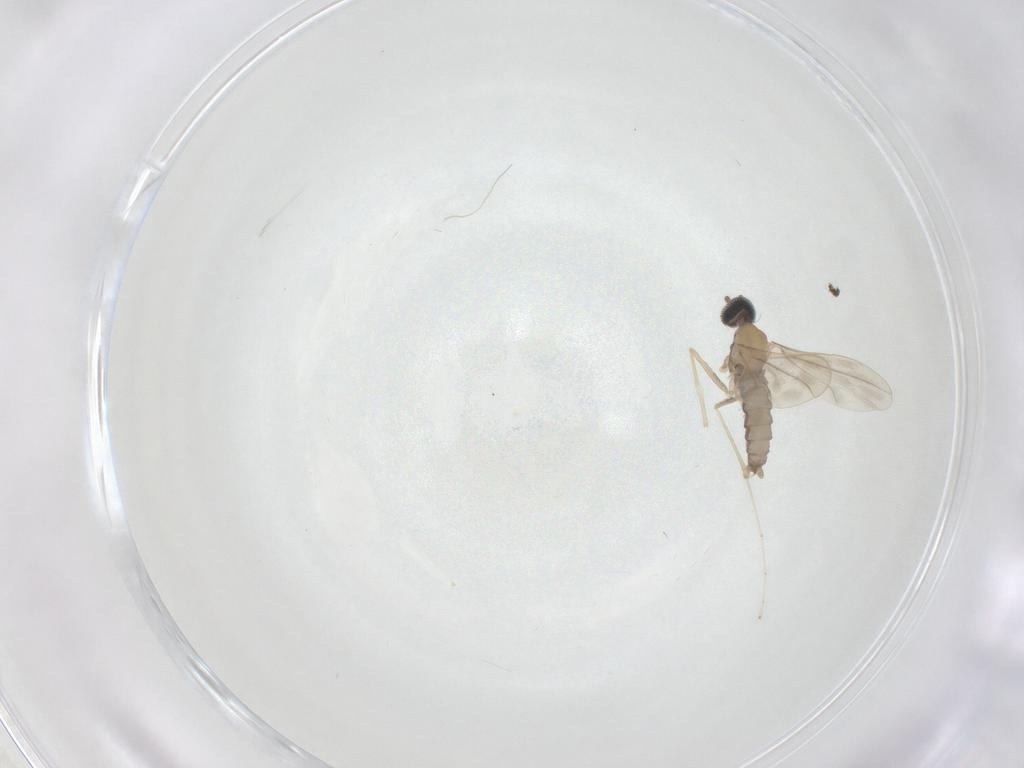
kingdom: Animalia
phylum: Arthropoda
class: Insecta
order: Diptera
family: Cecidomyiidae
